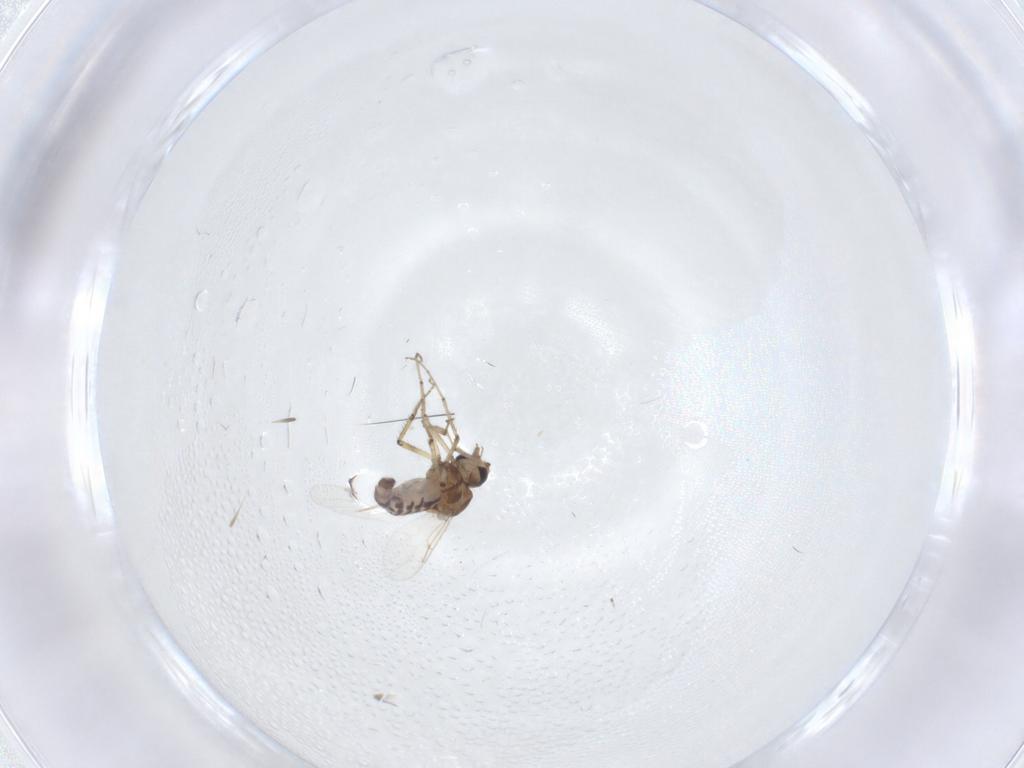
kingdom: Animalia
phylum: Arthropoda
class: Insecta
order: Diptera
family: Ceratopogonidae
